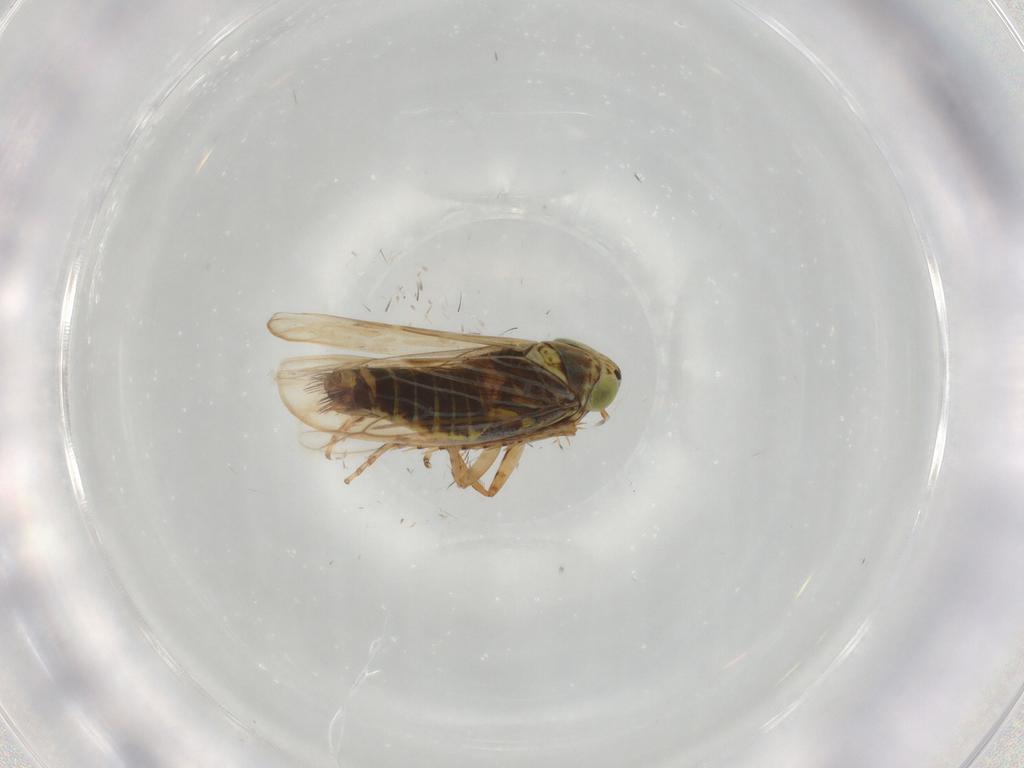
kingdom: Animalia
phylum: Arthropoda
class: Insecta
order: Hemiptera
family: Cicadellidae
